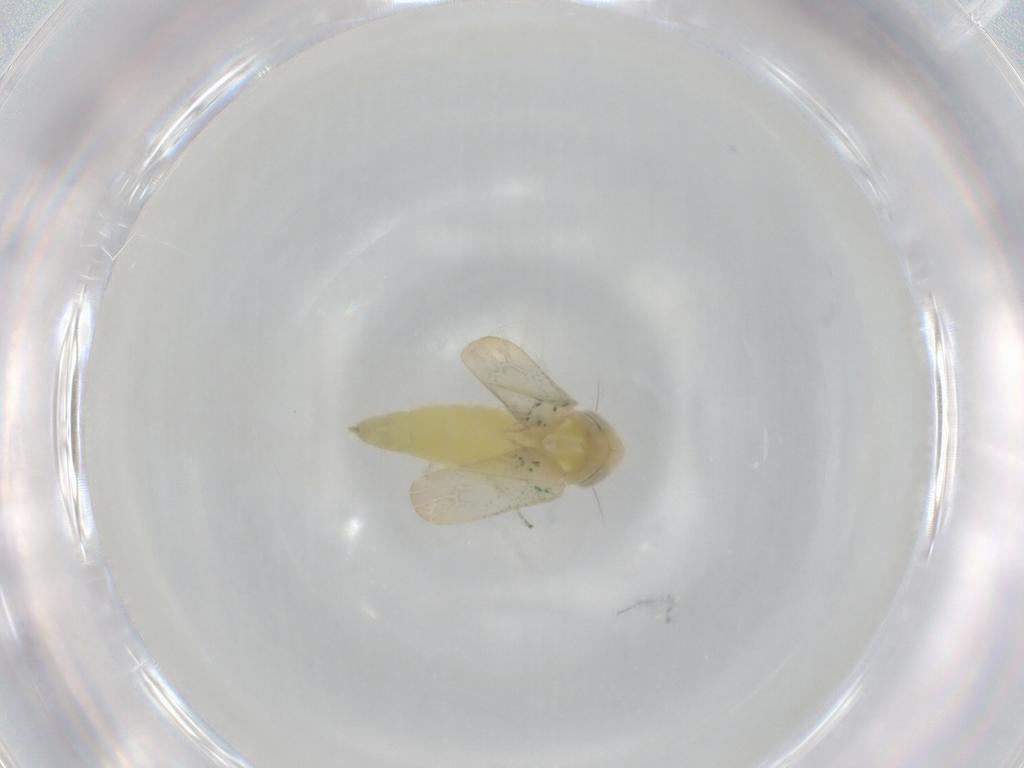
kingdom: Animalia
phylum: Arthropoda
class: Insecta
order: Hemiptera
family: Cicadellidae
